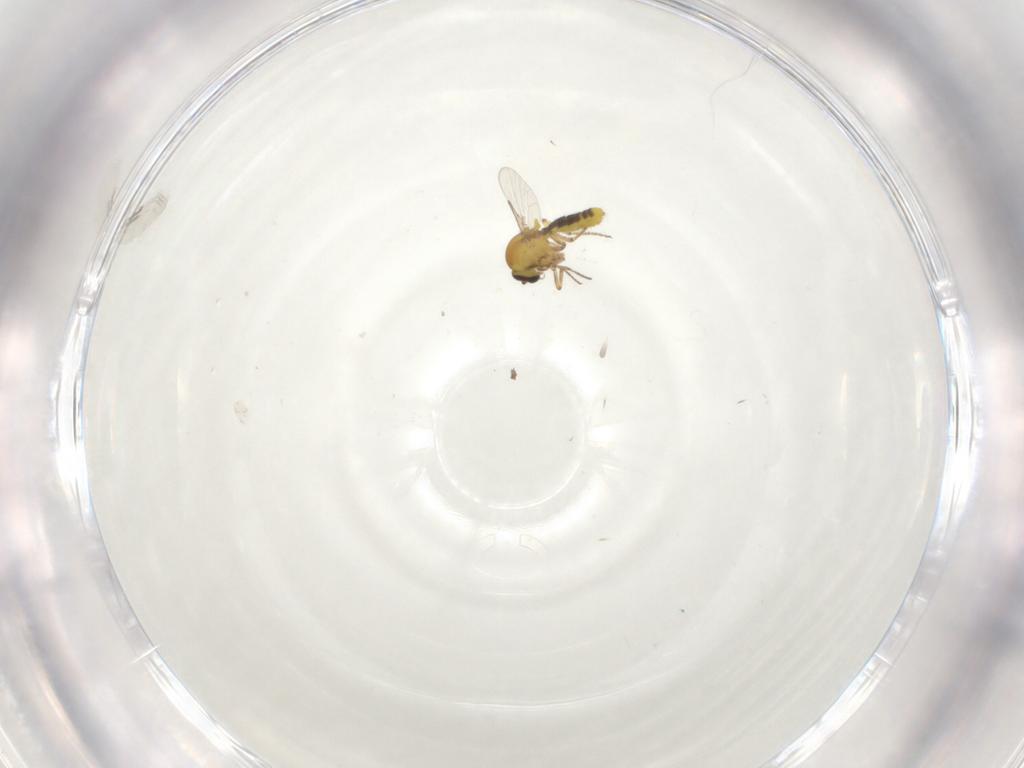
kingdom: Animalia
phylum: Arthropoda
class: Insecta
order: Diptera
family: Ceratopogonidae
